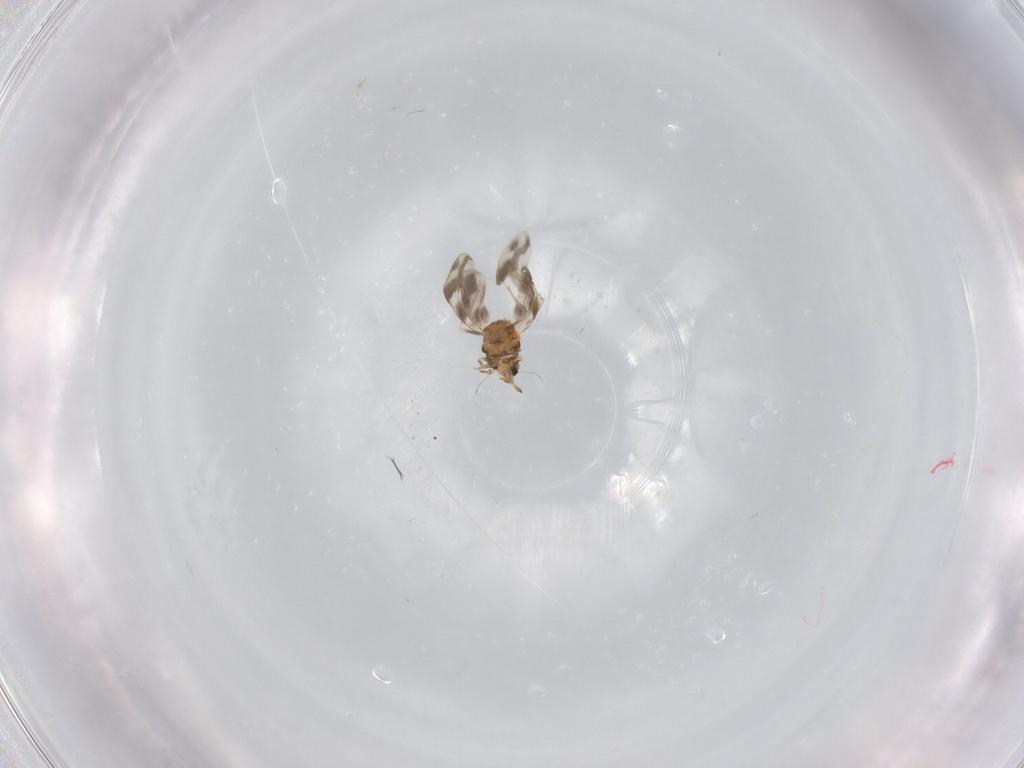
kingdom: Animalia
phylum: Arthropoda
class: Insecta
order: Hemiptera
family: Aleyrodidae
